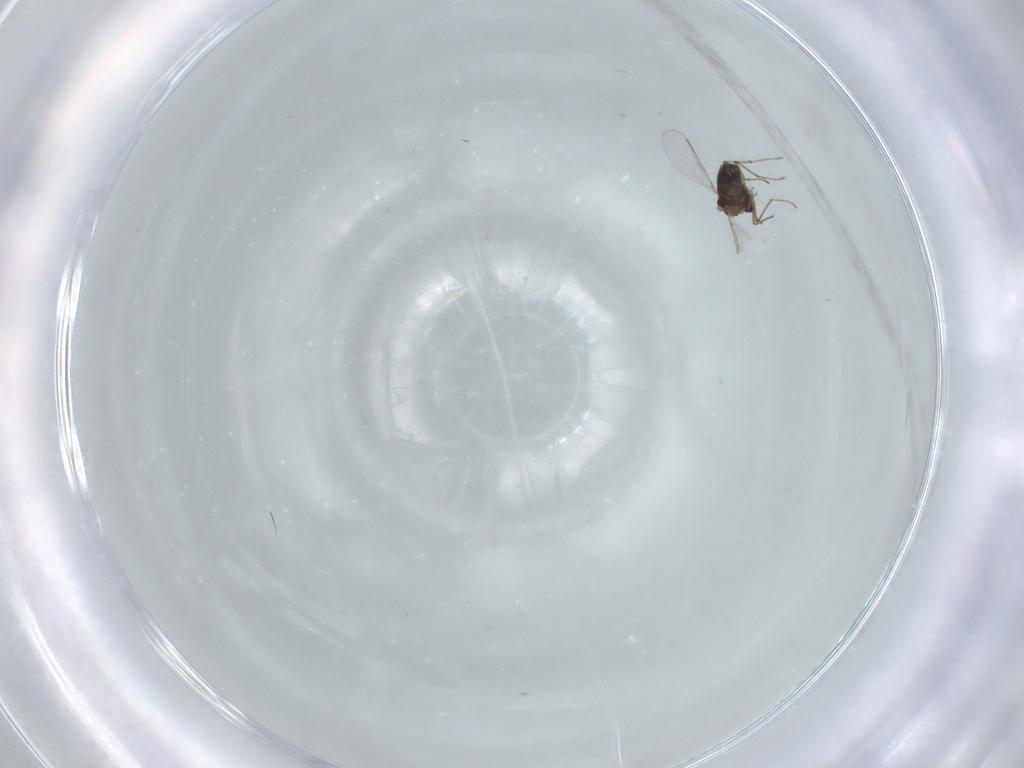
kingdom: Animalia
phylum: Arthropoda
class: Insecta
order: Diptera
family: Chironomidae
